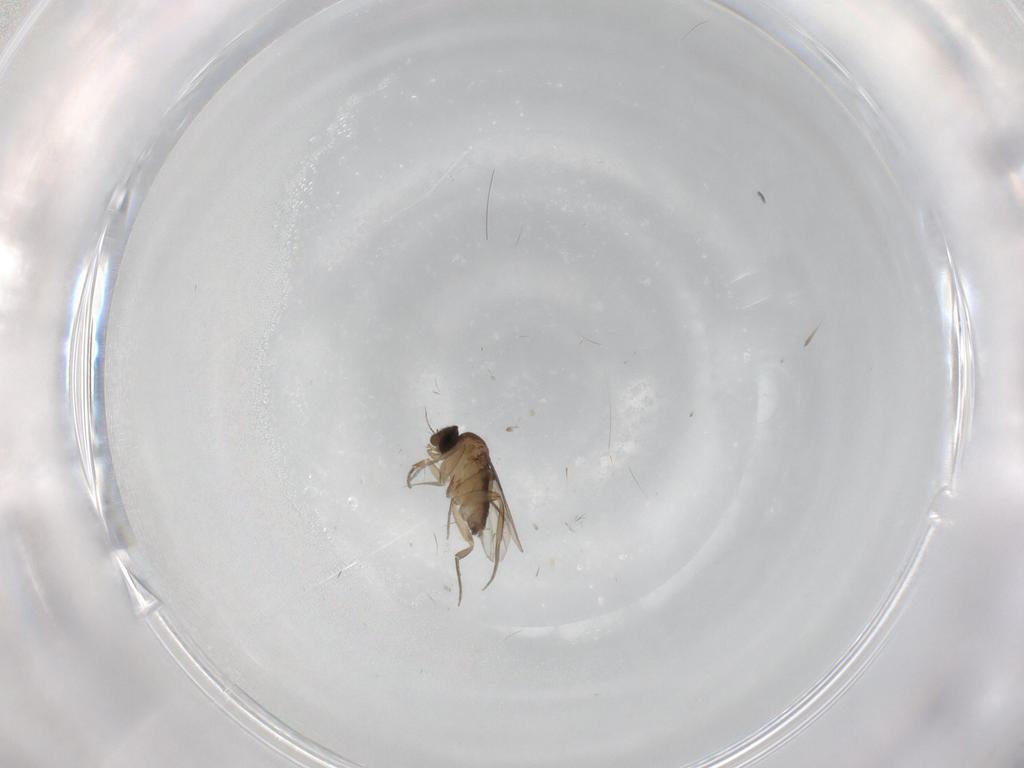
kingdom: Animalia
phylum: Arthropoda
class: Insecta
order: Diptera
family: Phoridae
